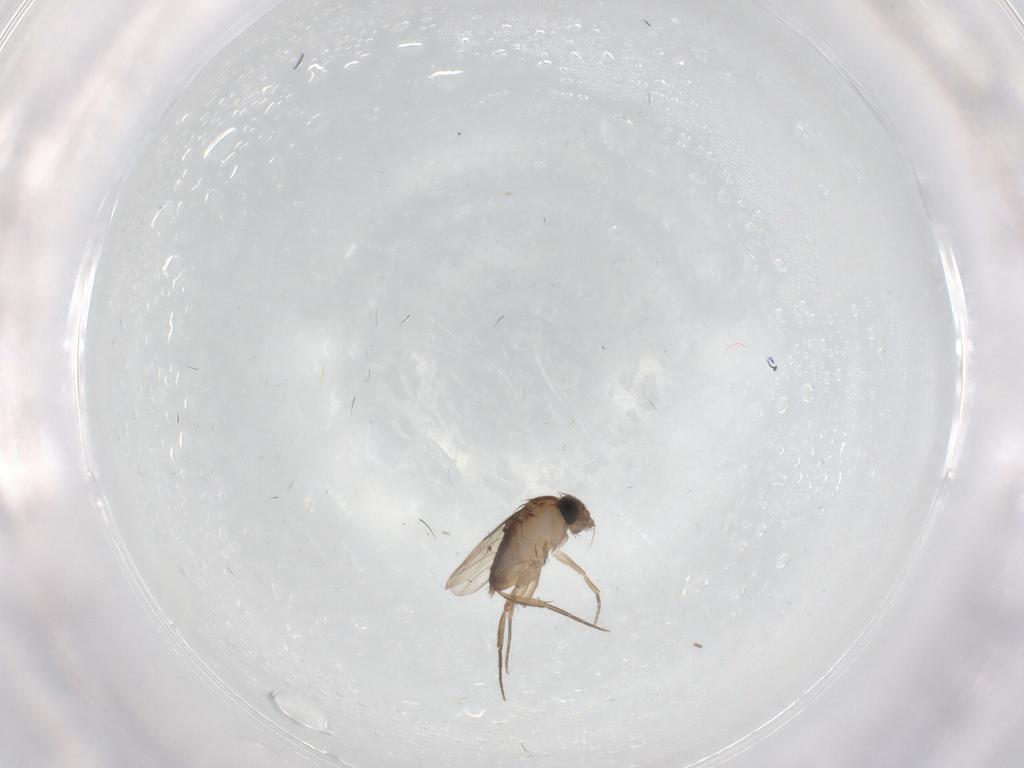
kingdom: Animalia
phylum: Arthropoda
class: Insecta
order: Diptera
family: Phoridae
